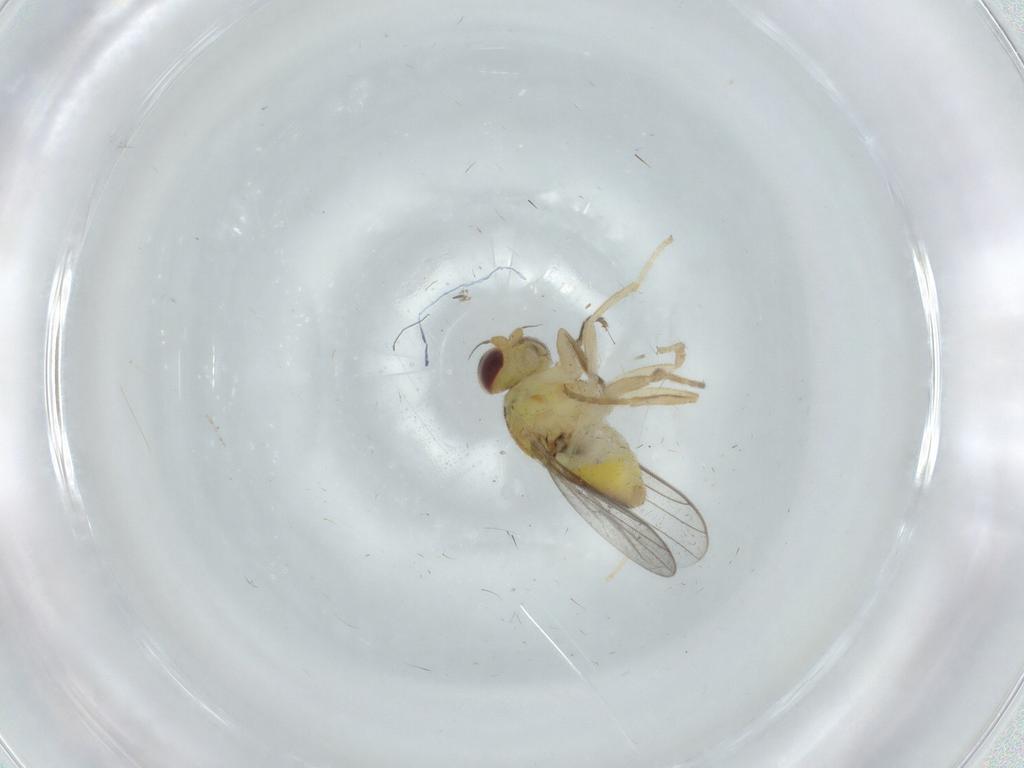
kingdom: Animalia
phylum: Arthropoda
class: Insecta
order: Diptera
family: Chloropidae
